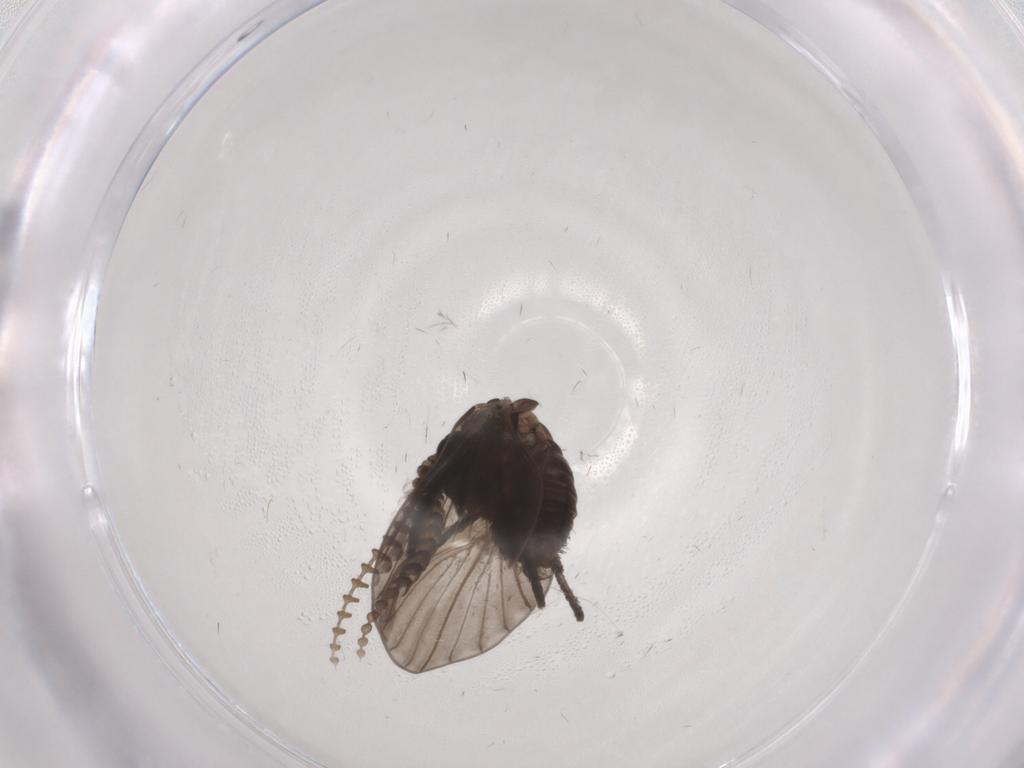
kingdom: Animalia
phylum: Arthropoda
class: Insecta
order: Diptera
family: Psychodidae
